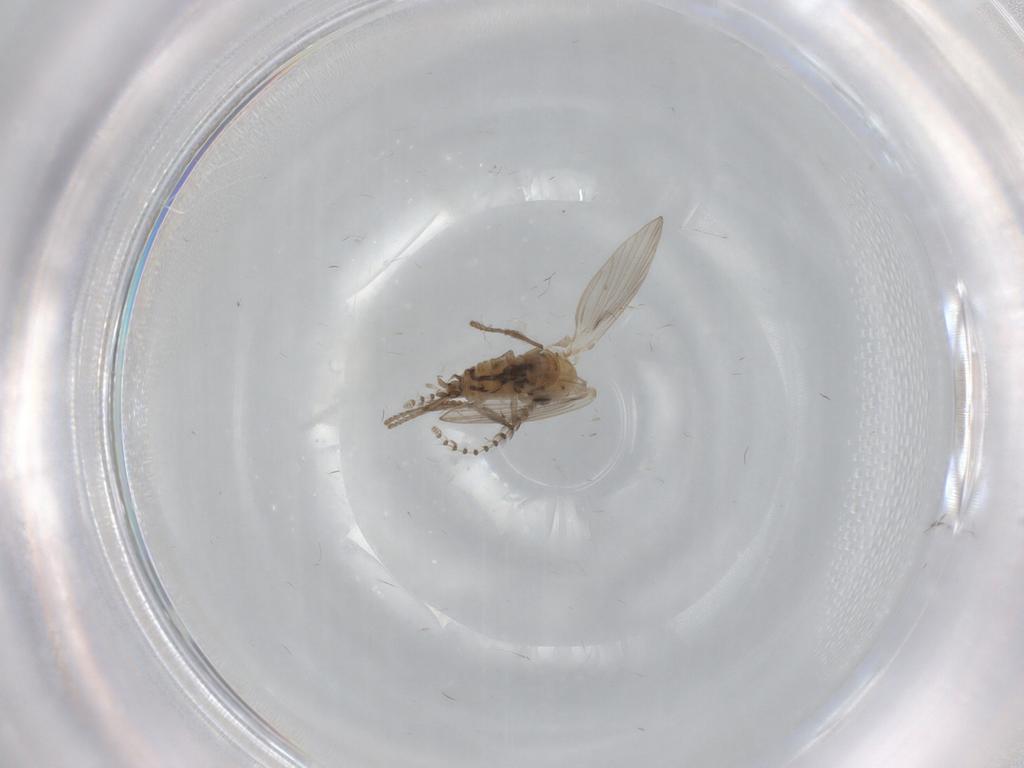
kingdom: Animalia
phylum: Arthropoda
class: Insecta
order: Diptera
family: Psychodidae
